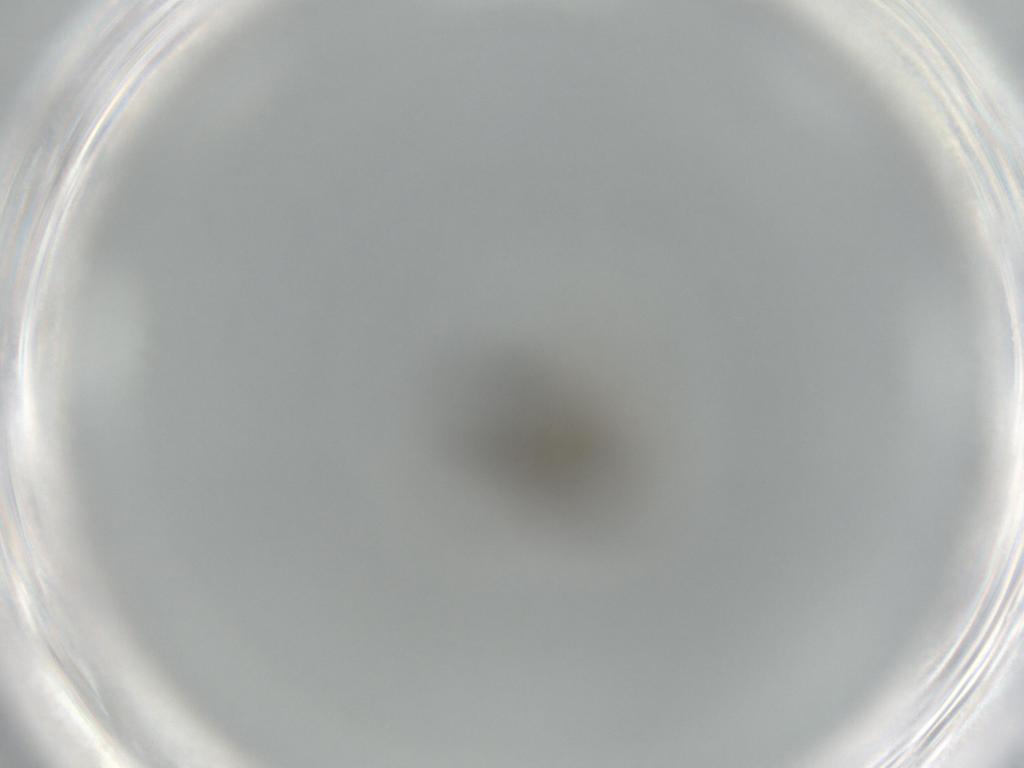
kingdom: Animalia
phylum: Arthropoda
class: Insecta
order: Diptera
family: Ceratopogonidae
